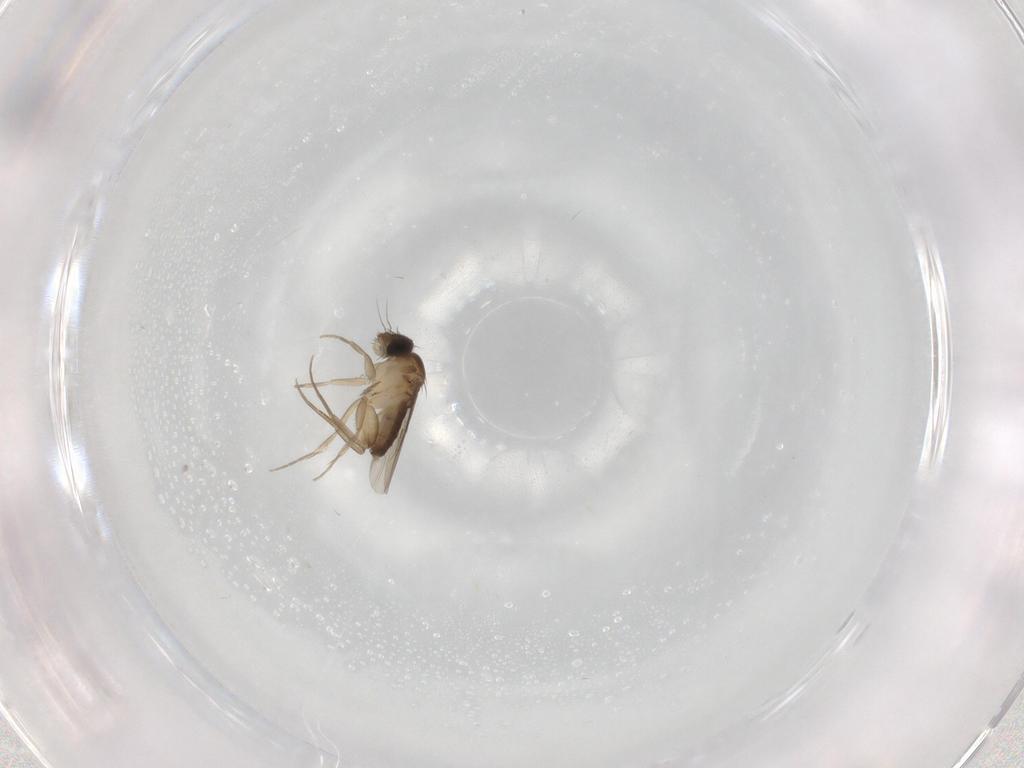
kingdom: Animalia
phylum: Arthropoda
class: Insecta
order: Diptera
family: Phoridae
